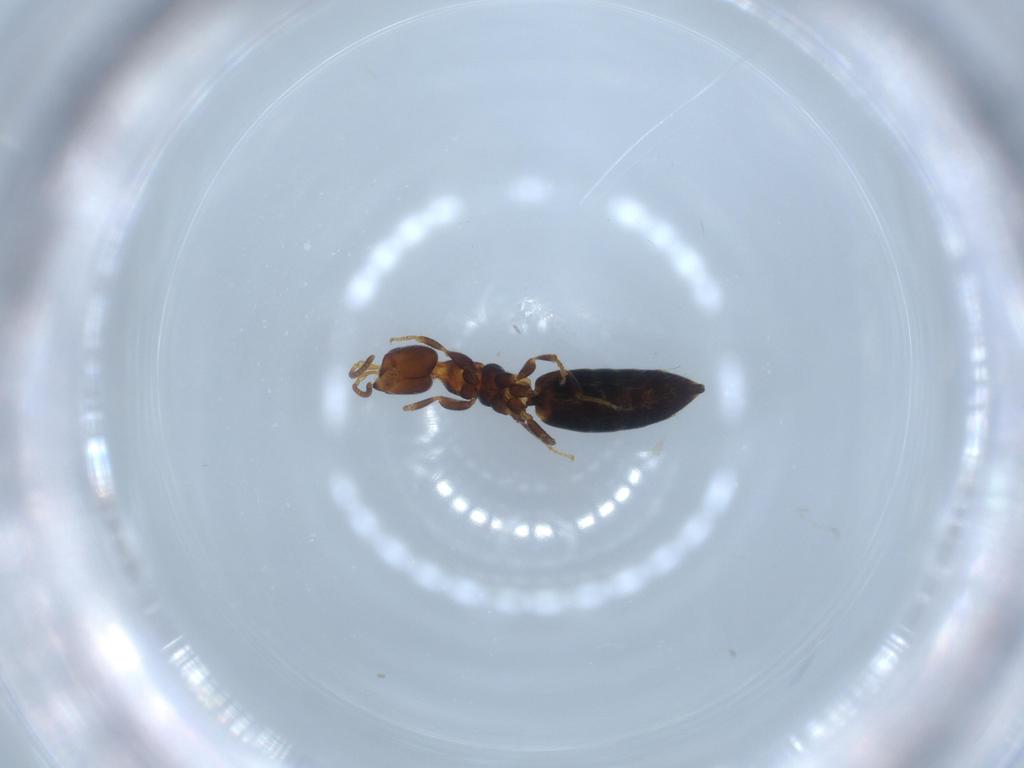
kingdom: Animalia
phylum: Arthropoda
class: Insecta
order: Hymenoptera
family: Bethylidae
